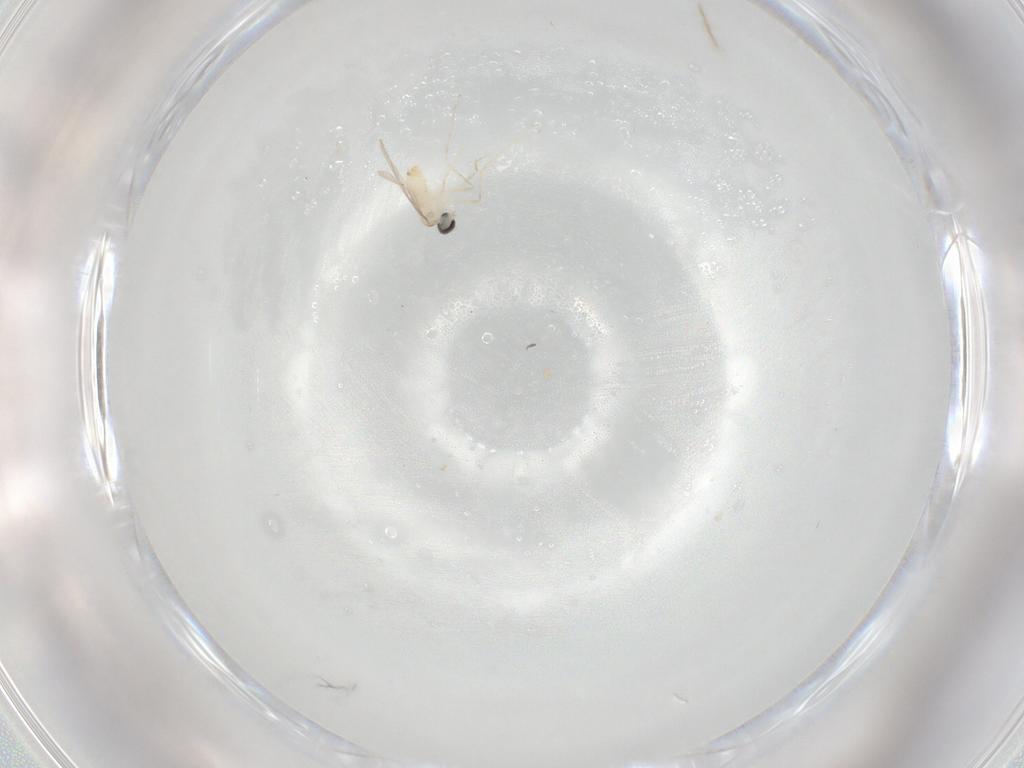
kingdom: Animalia
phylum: Arthropoda
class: Insecta
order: Diptera
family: Cecidomyiidae
